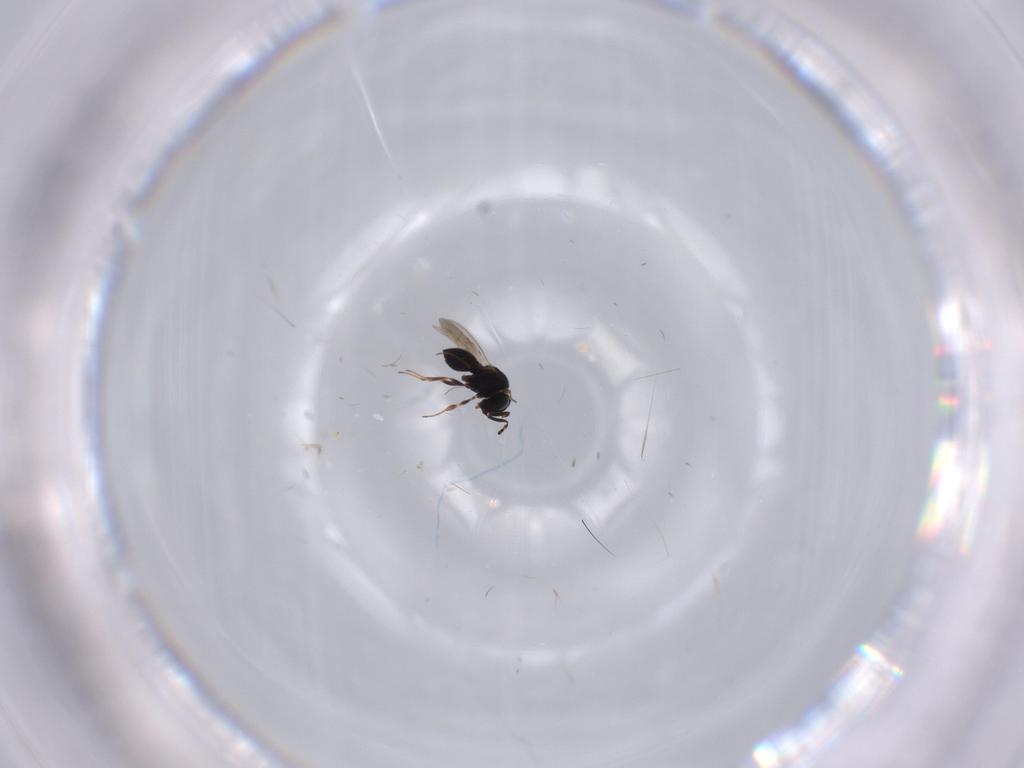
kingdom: Animalia
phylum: Arthropoda
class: Insecta
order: Hymenoptera
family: Scelionidae
